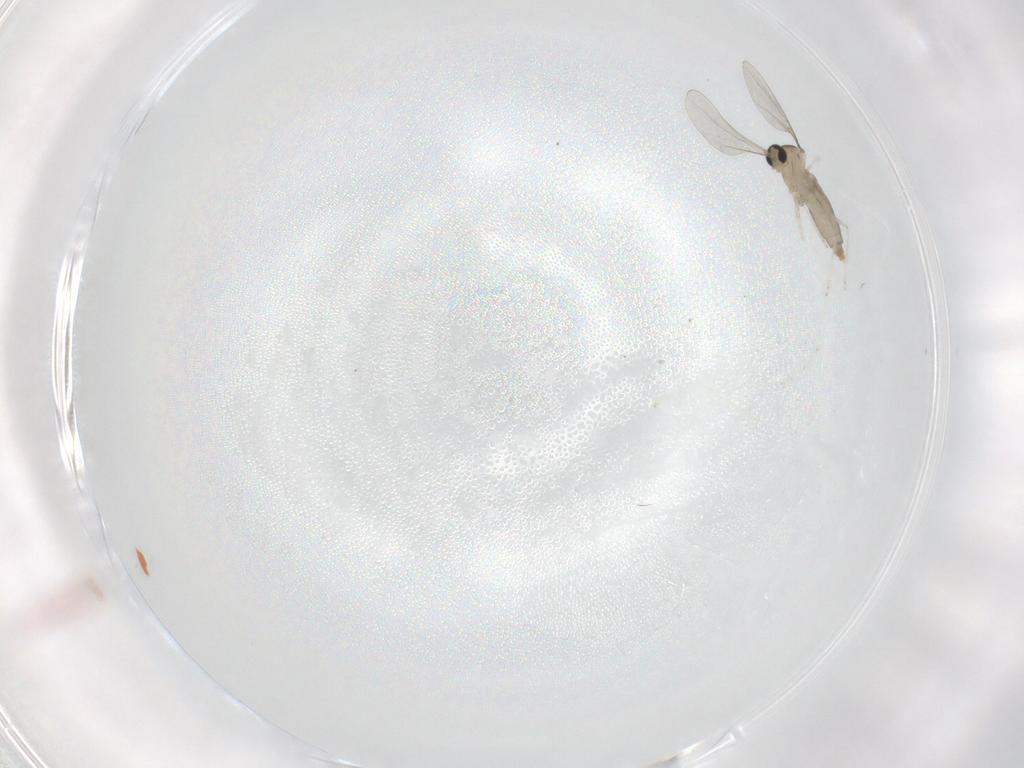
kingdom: Animalia
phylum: Arthropoda
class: Insecta
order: Diptera
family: Cecidomyiidae
